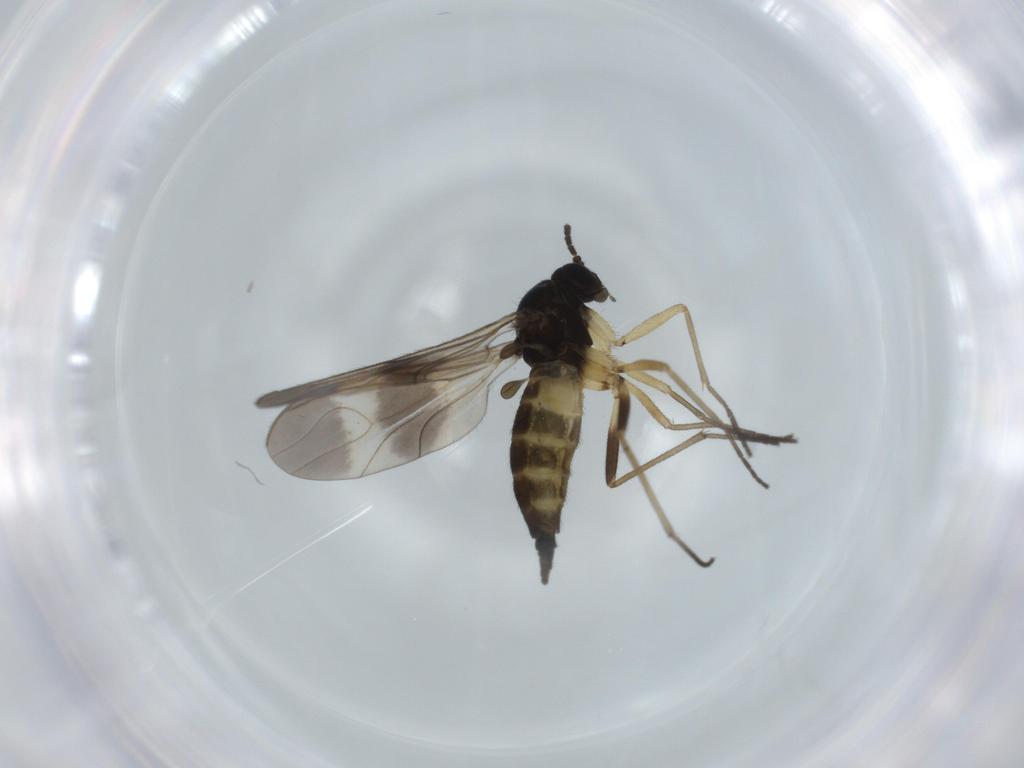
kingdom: Animalia
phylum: Arthropoda
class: Insecta
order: Diptera
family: Sciaridae
